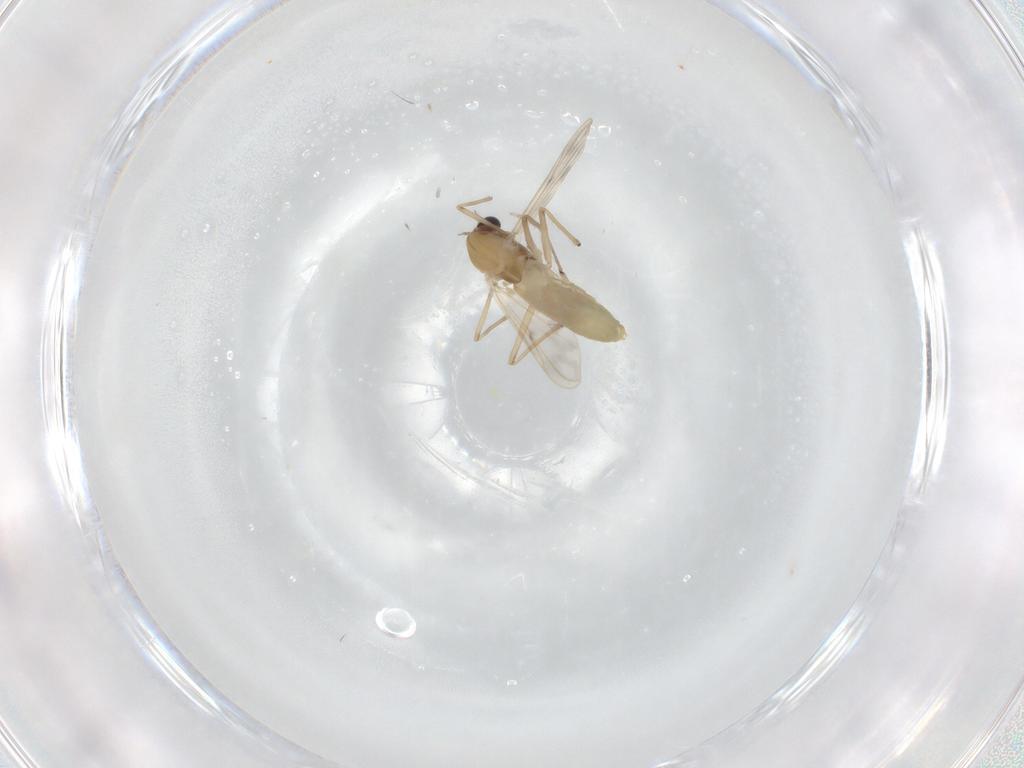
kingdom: Animalia
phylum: Arthropoda
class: Insecta
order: Diptera
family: Chironomidae
